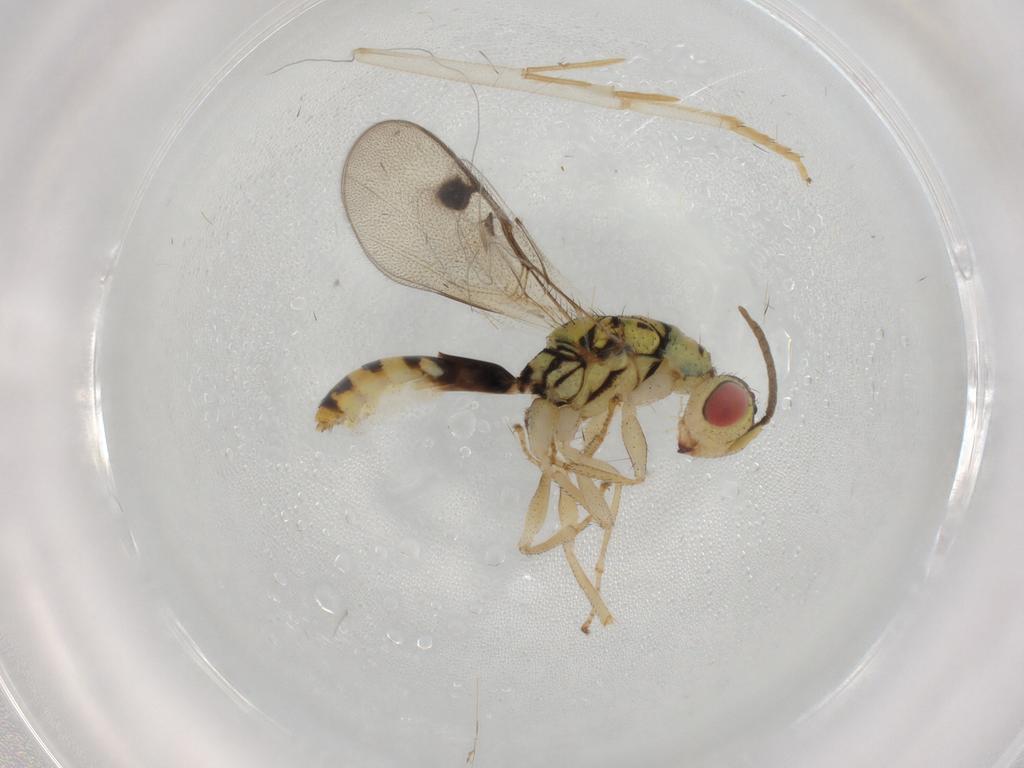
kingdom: Animalia
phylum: Arthropoda
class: Insecta
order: Hymenoptera
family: Megastigmidae
